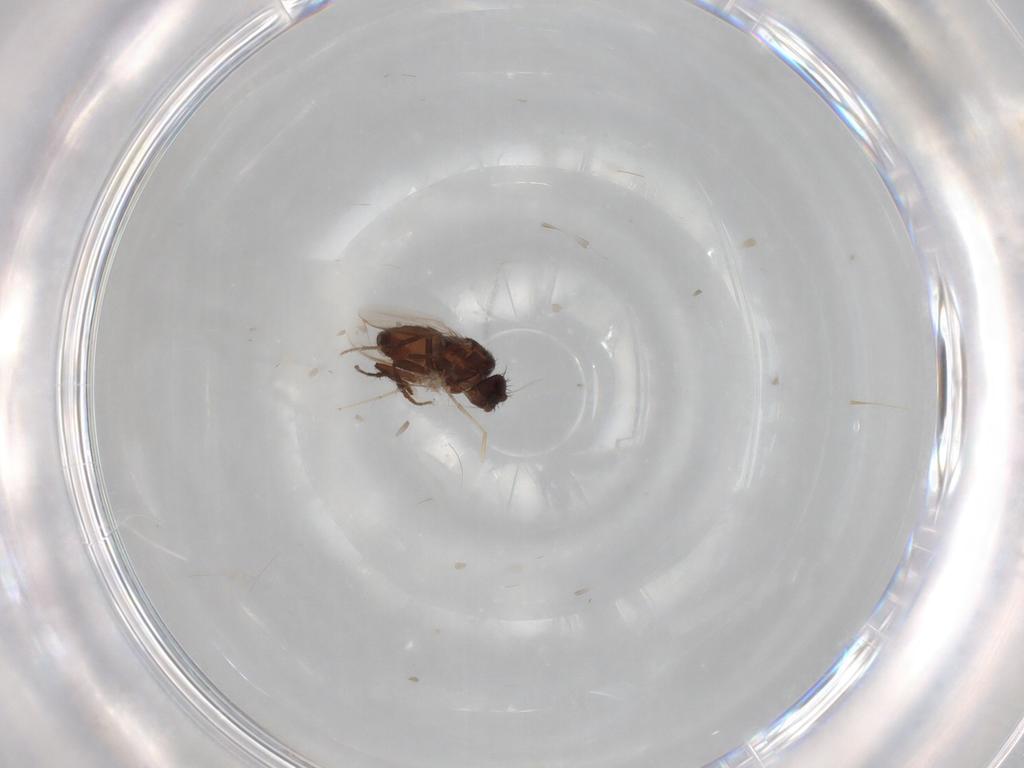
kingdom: Animalia
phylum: Arthropoda
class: Insecta
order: Diptera
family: Sphaeroceridae
